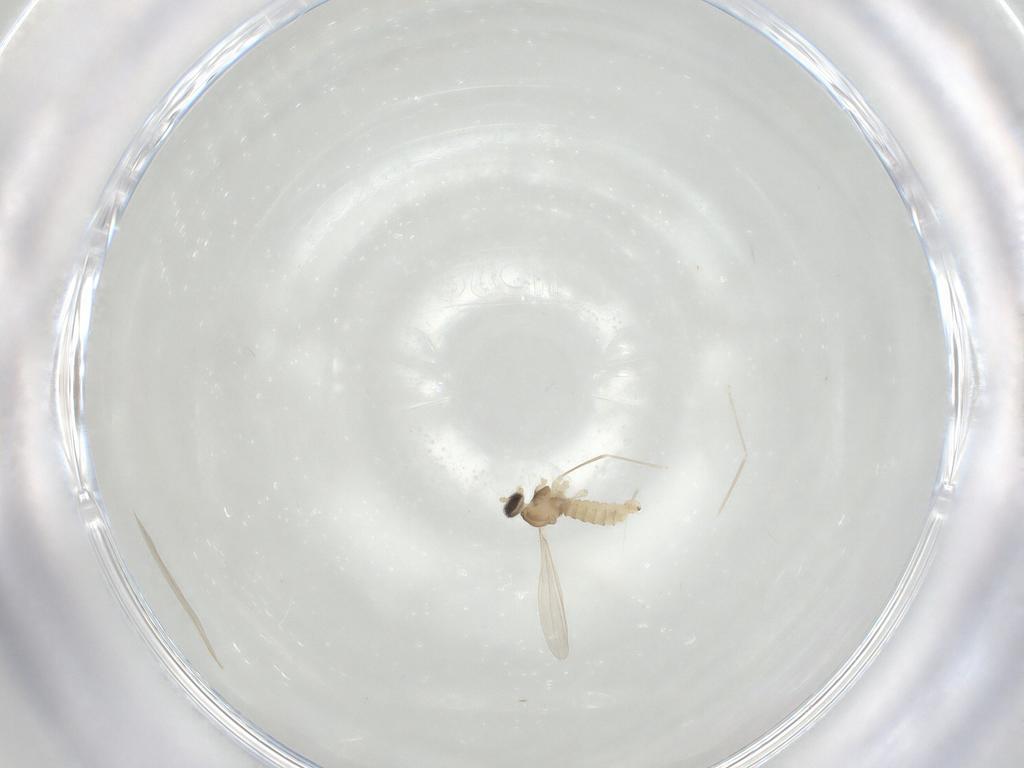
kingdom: Animalia
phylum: Arthropoda
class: Insecta
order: Diptera
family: Cecidomyiidae
